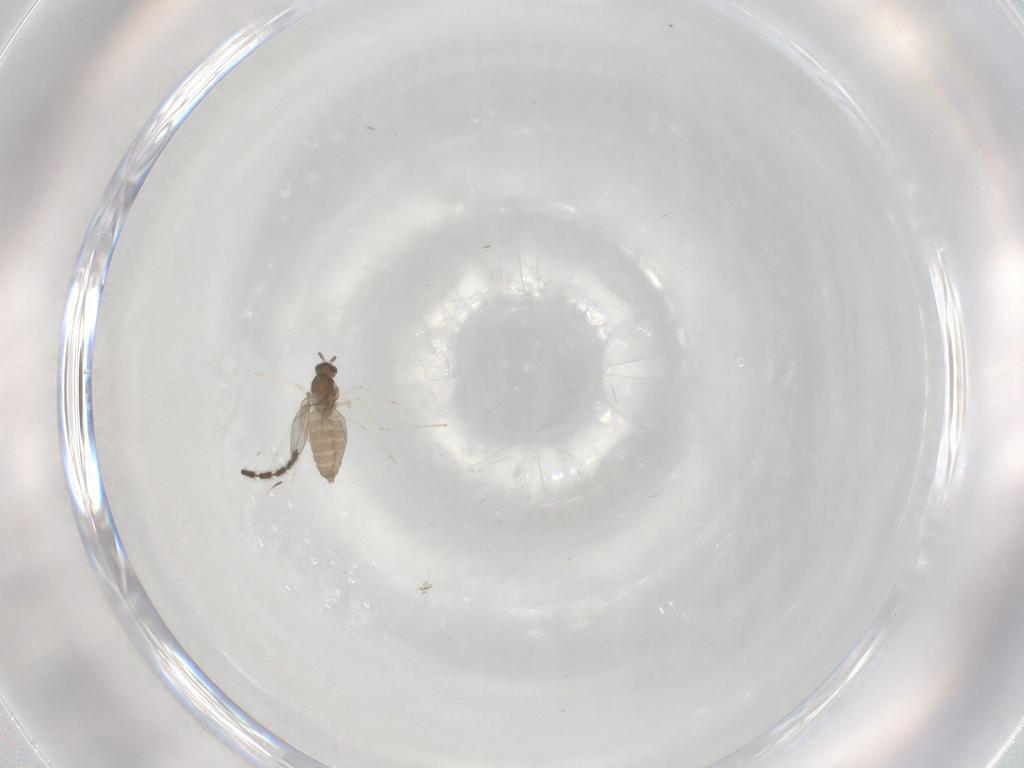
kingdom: Animalia
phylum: Arthropoda
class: Insecta
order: Diptera
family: Cecidomyiidae
